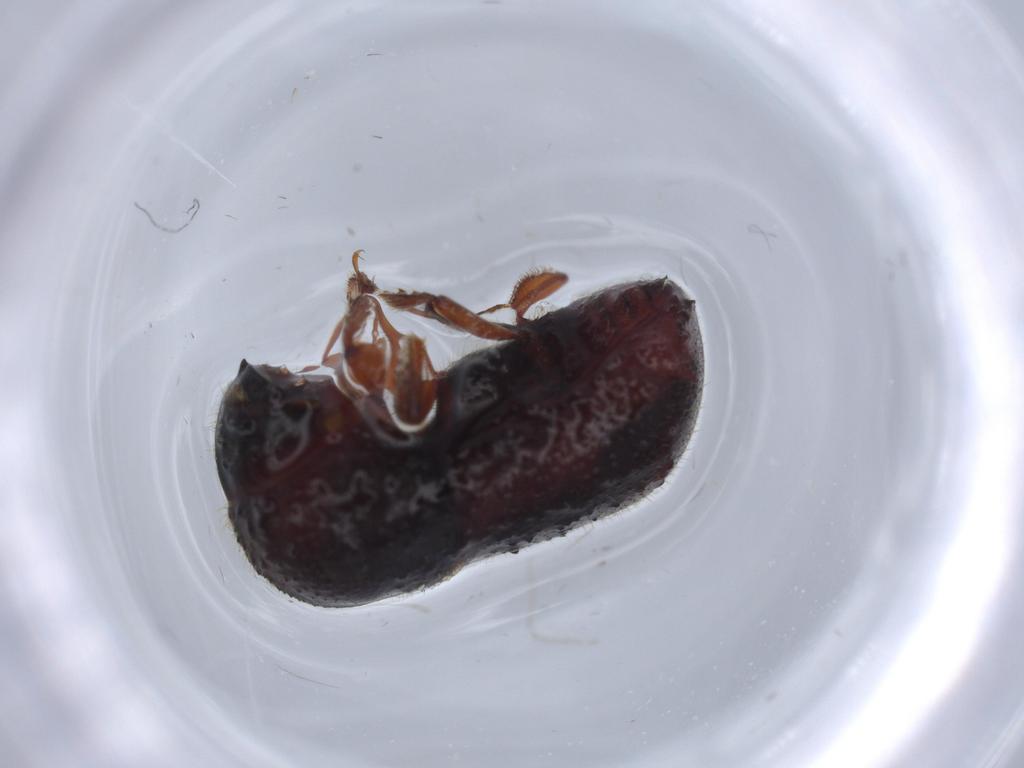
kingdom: Animalia
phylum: Arthropoda
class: Insecta
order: Coleoptera
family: Curculionidae
